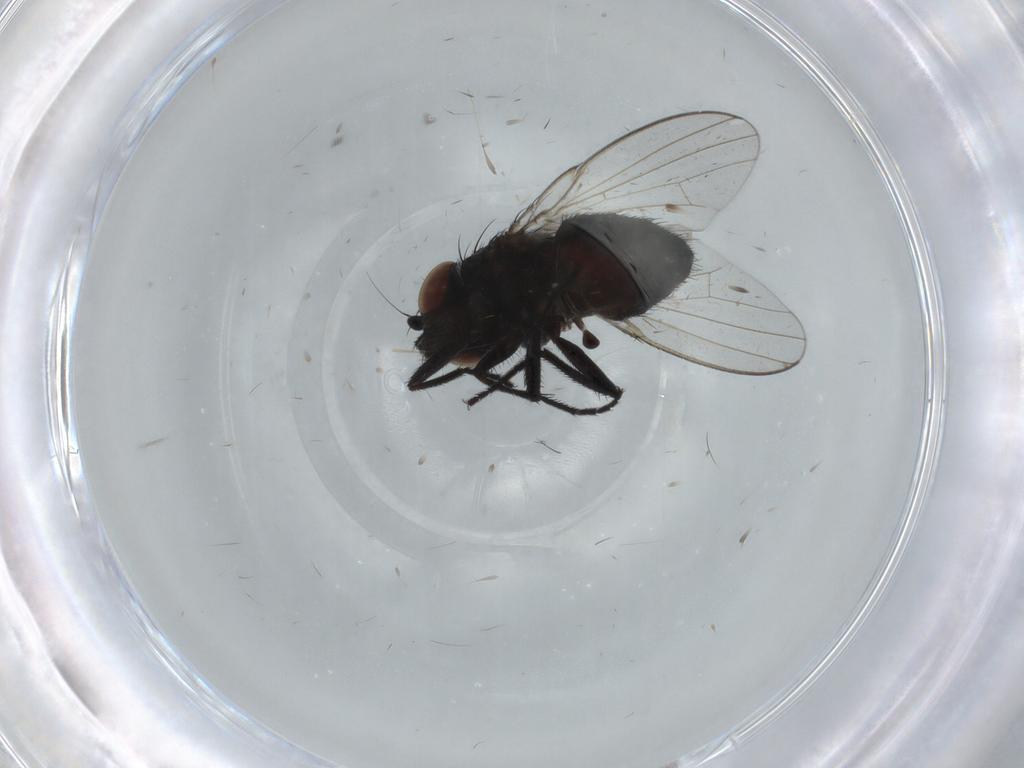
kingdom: Animalia
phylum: Arthropoda
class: Insecta
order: Diptera
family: Milichiidae
